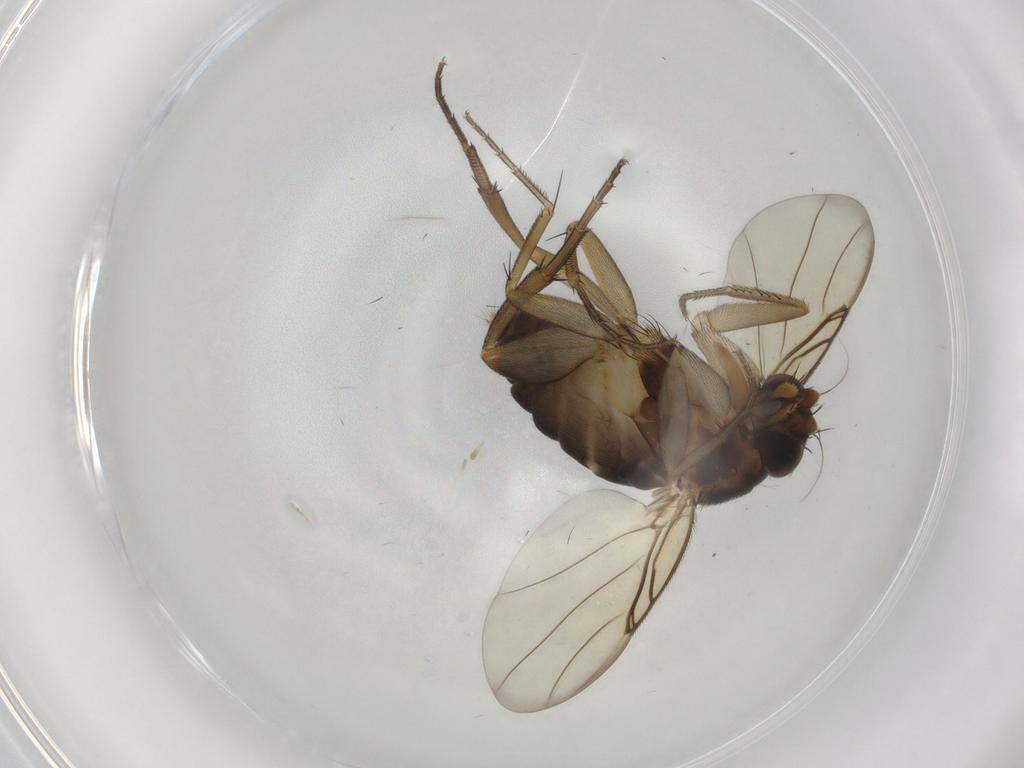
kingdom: Animalia
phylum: Arthropoda
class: Insecta
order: Diptera
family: Phoridae
